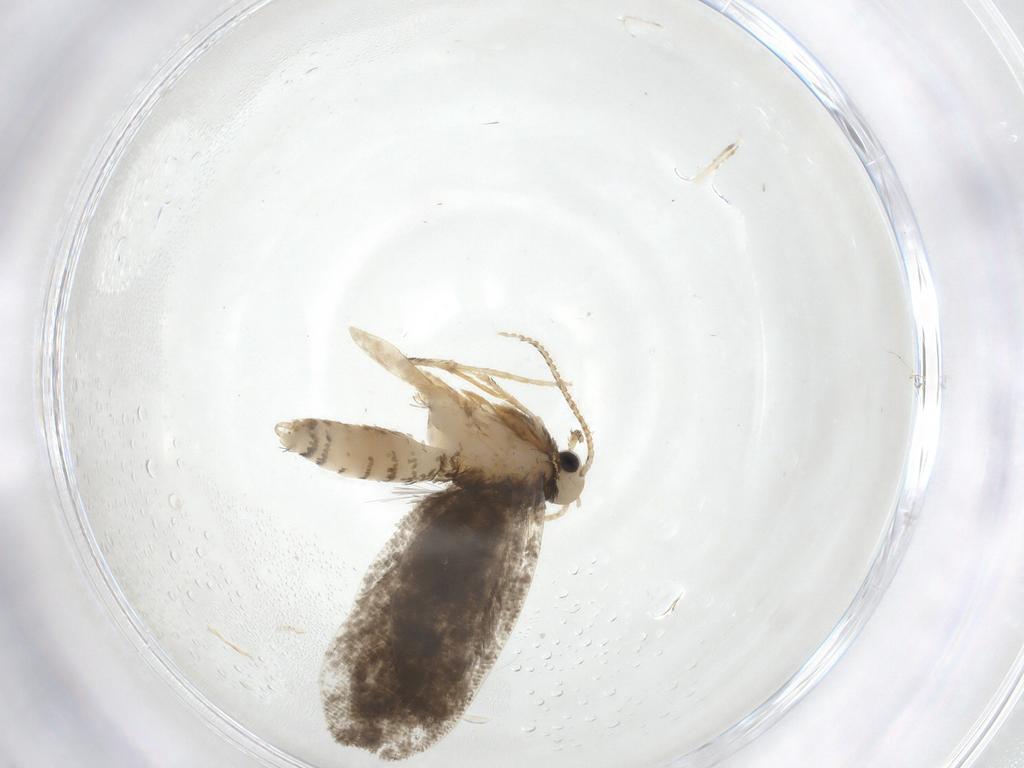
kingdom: Animalia
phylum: Arthropoda
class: Insecta
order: Lepidoptera
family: Psychidae
